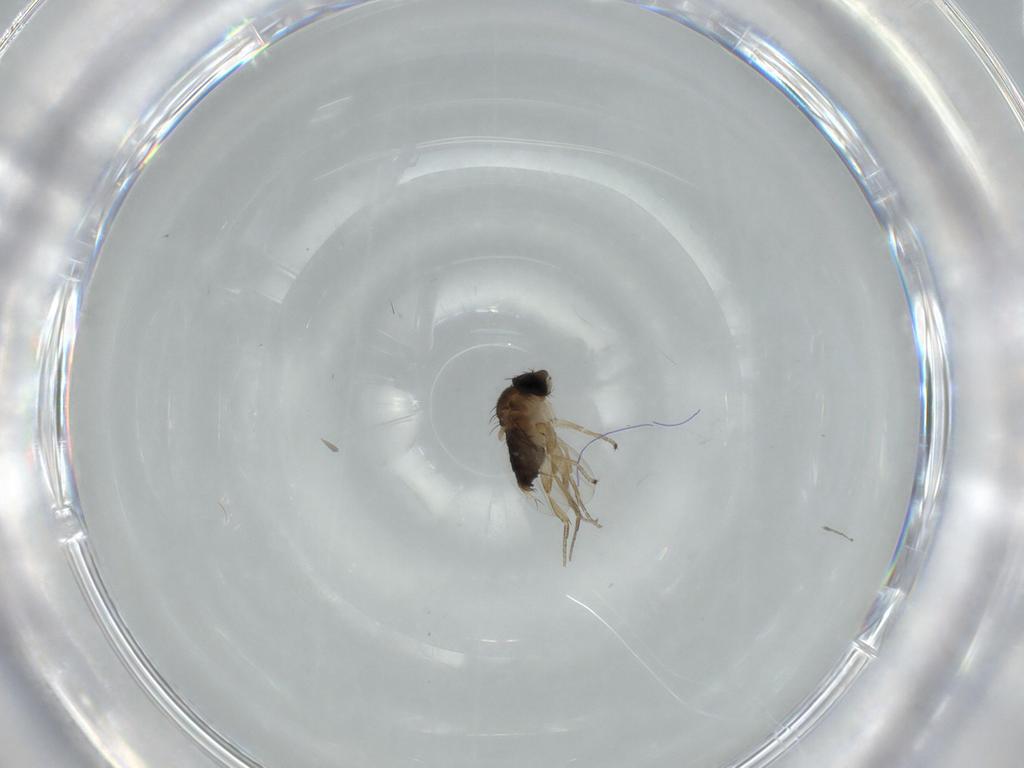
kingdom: Animalia
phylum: Arthropoda
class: Insecta
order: Diptera
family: Phoridae
